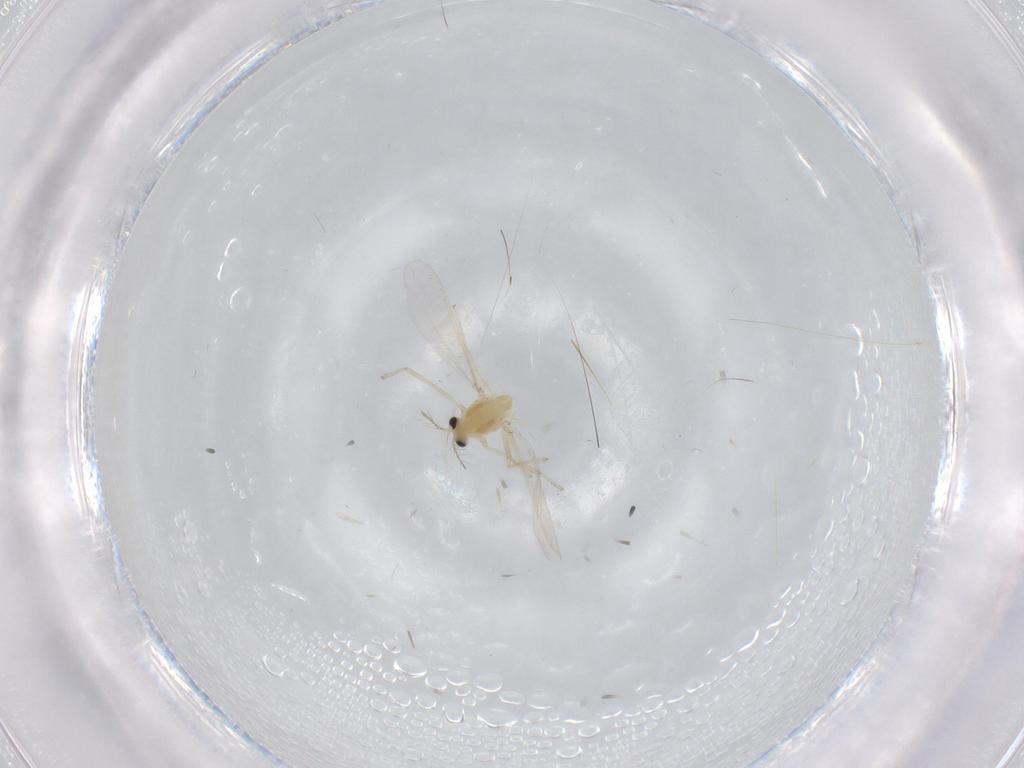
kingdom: Animalia
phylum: Arthropoda
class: Insecta
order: Diptera
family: Chironomidae
